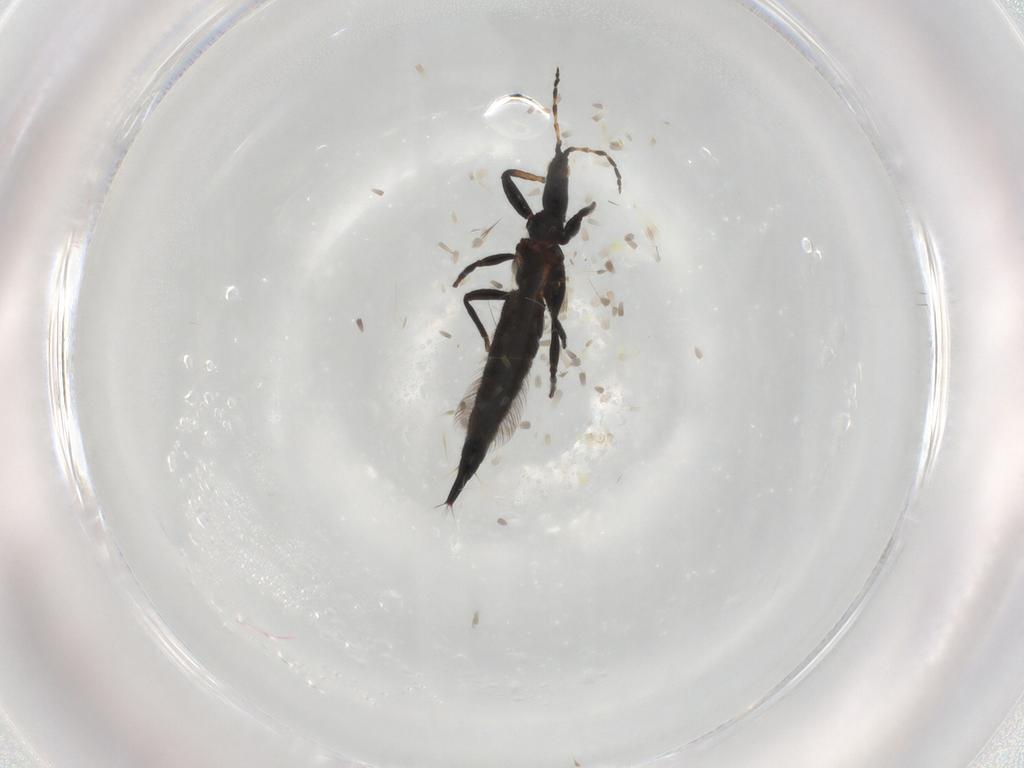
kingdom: Animalia
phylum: Arthropoda
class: Insecta
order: Thysanoptera
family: Phlaeothripidae
